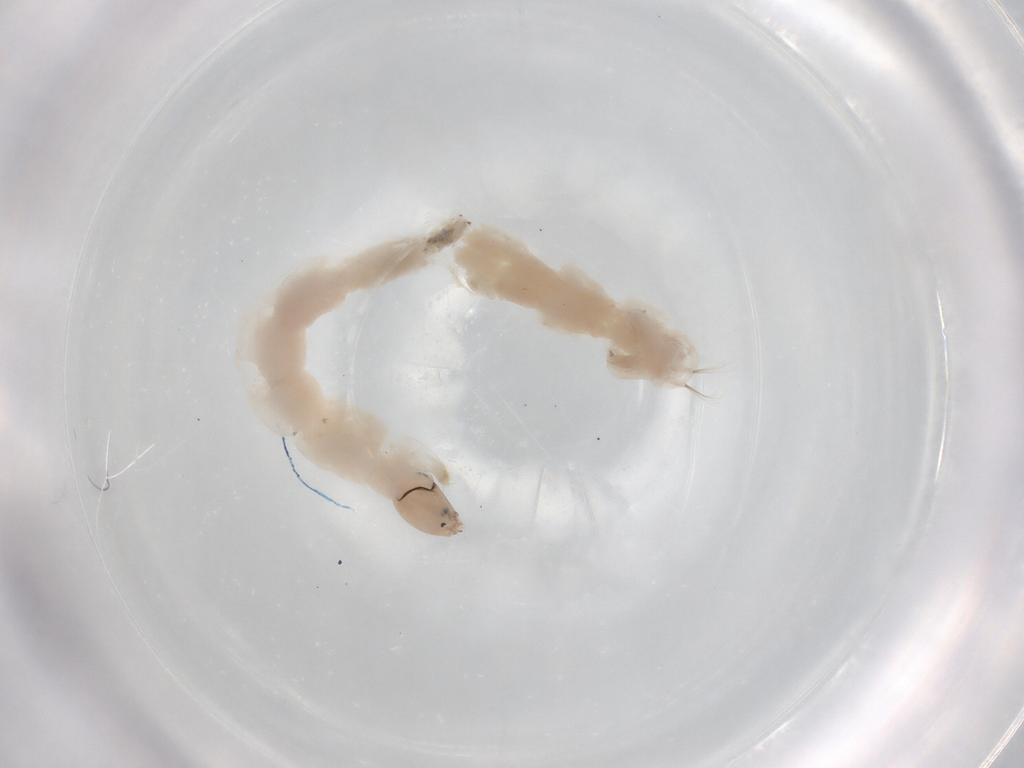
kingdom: Animalia
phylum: Arthropoda
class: Insecta
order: Diptera
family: Chironomidae
